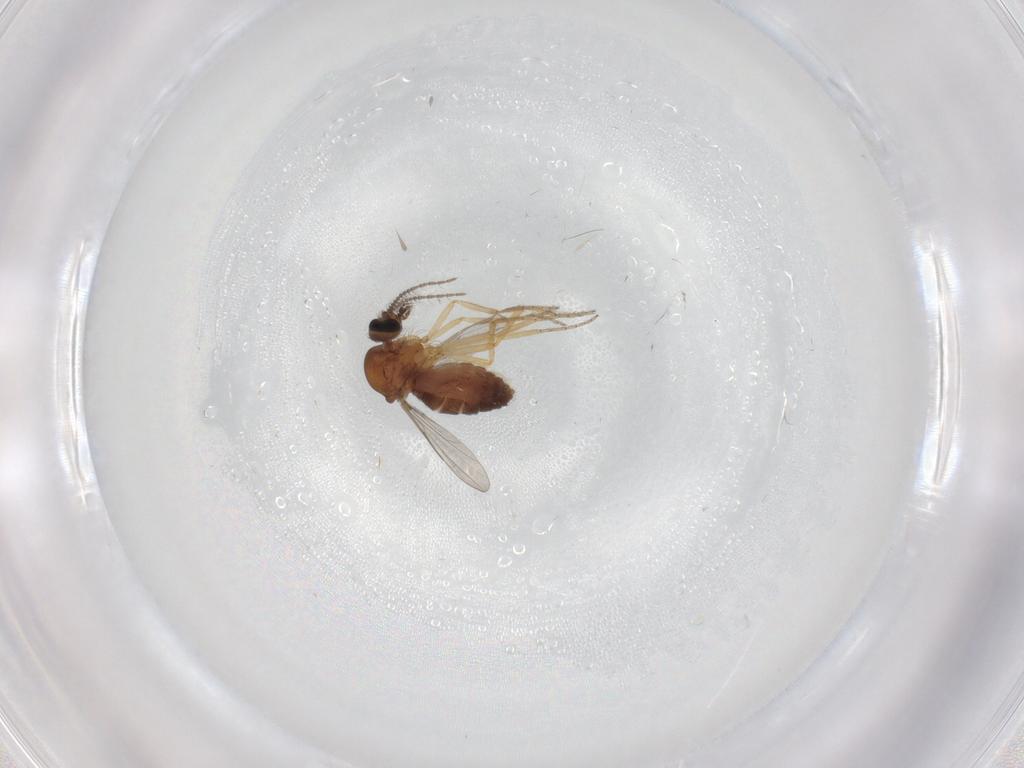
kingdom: Animalia
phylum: Arthropoda
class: Insecta
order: Diptera
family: Ceratopogonidae
